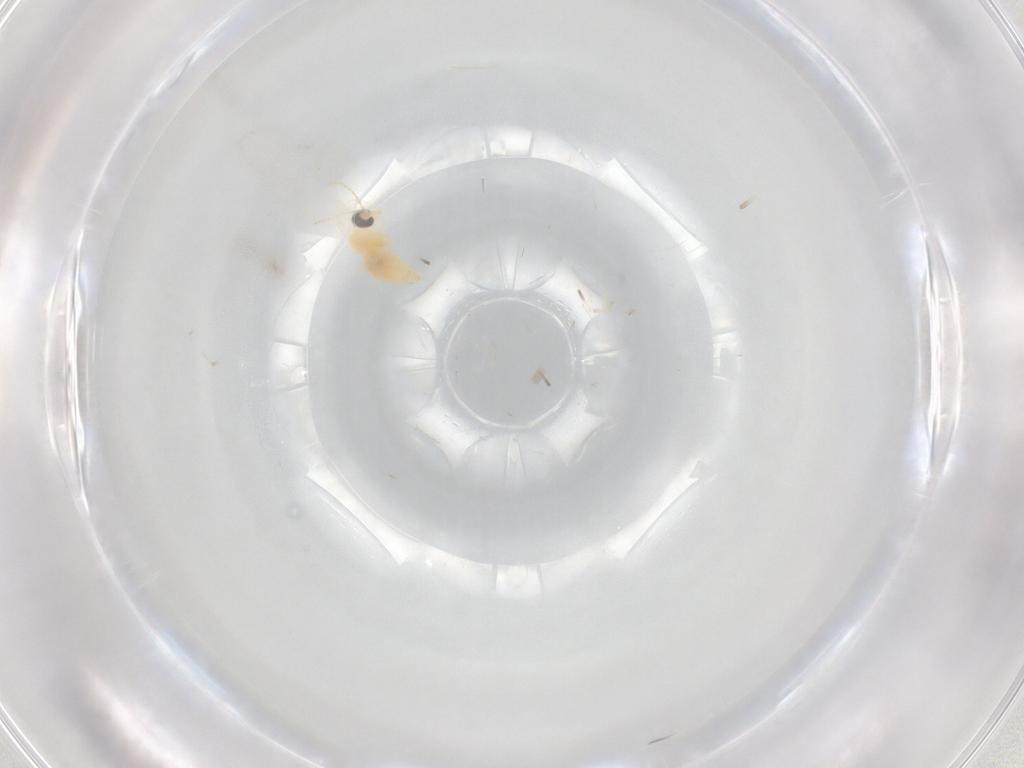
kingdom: Animalia
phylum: Arthropoda
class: Insecta
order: Diptera
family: Cecidomyiidae
